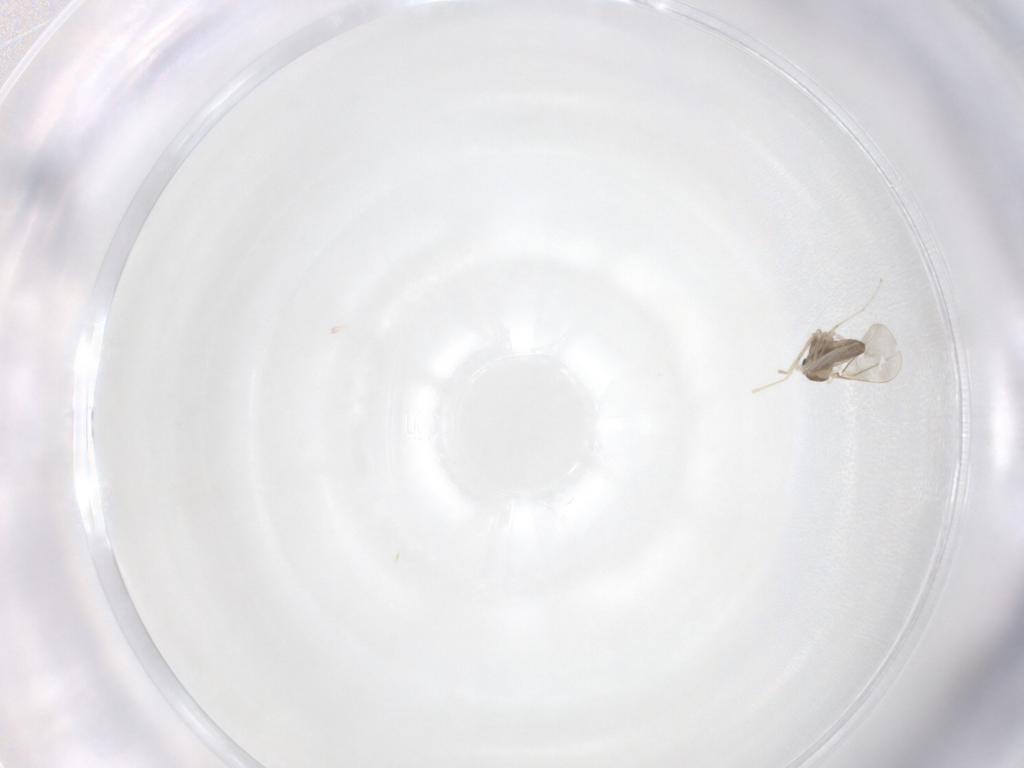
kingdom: Animalia
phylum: Arthropoda
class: Insecta
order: Diptera
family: Cecidomyiidae
